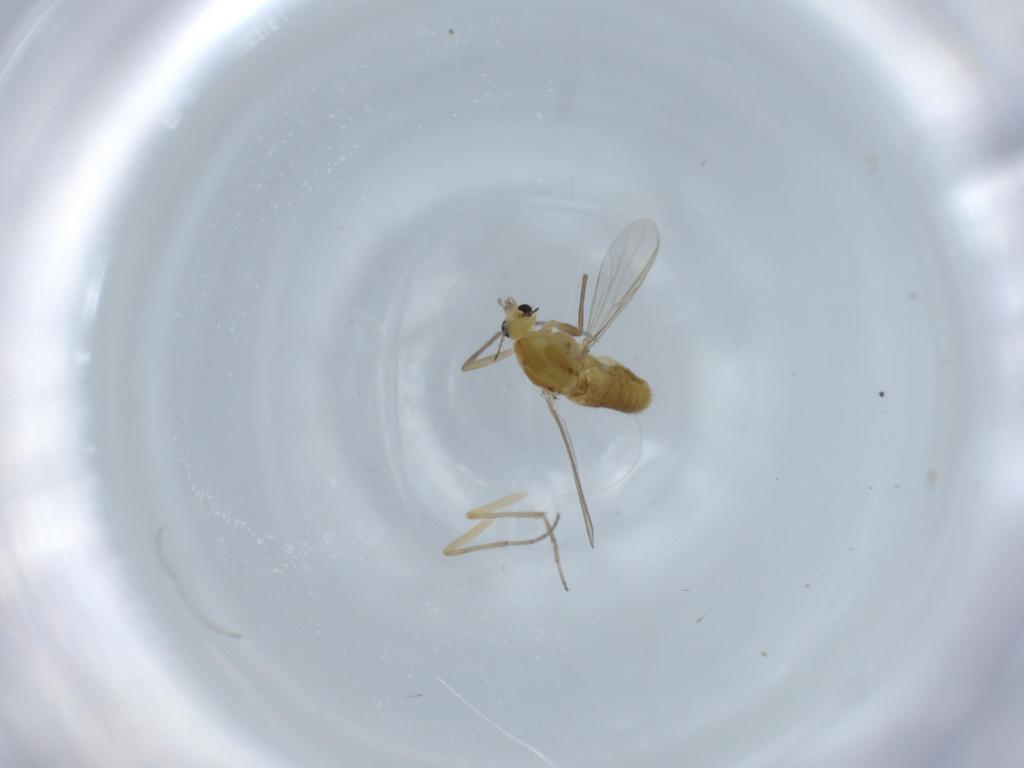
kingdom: Animalia
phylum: Arthropoda
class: Insecta
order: Diptera
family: Chironomidae
